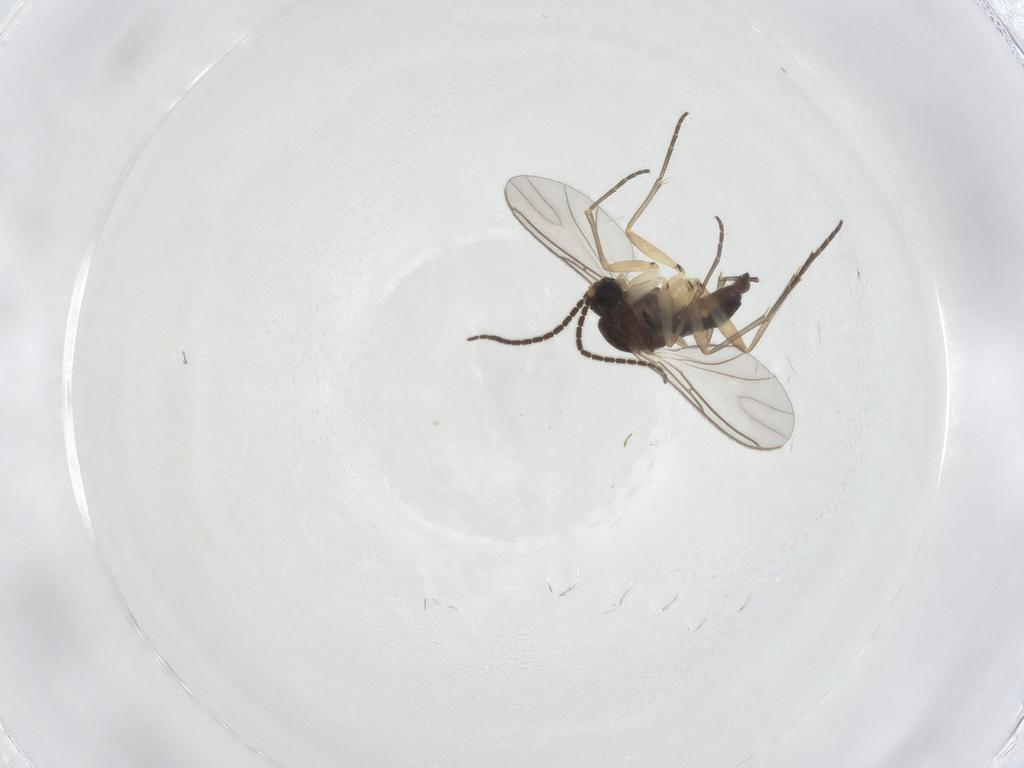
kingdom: Animalia
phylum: Arthropoda
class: Insecta
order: Diptera
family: Sciaridae
